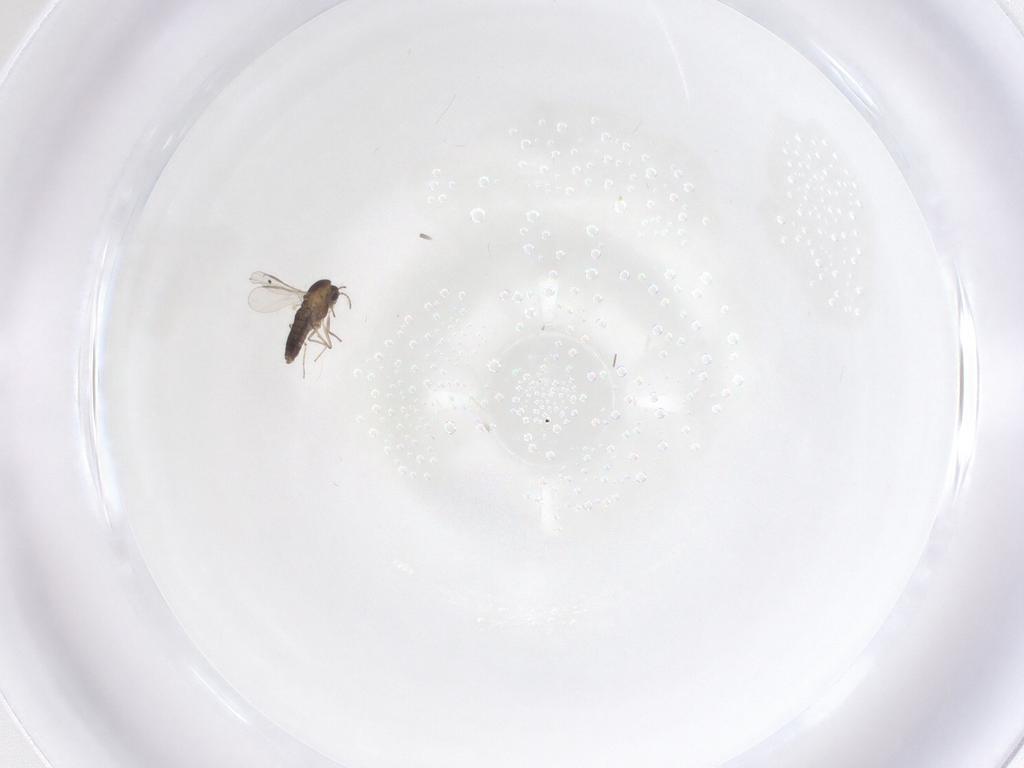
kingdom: Animalia
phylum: Arthropoda
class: Insecta
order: Diptera
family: Chironomidae
